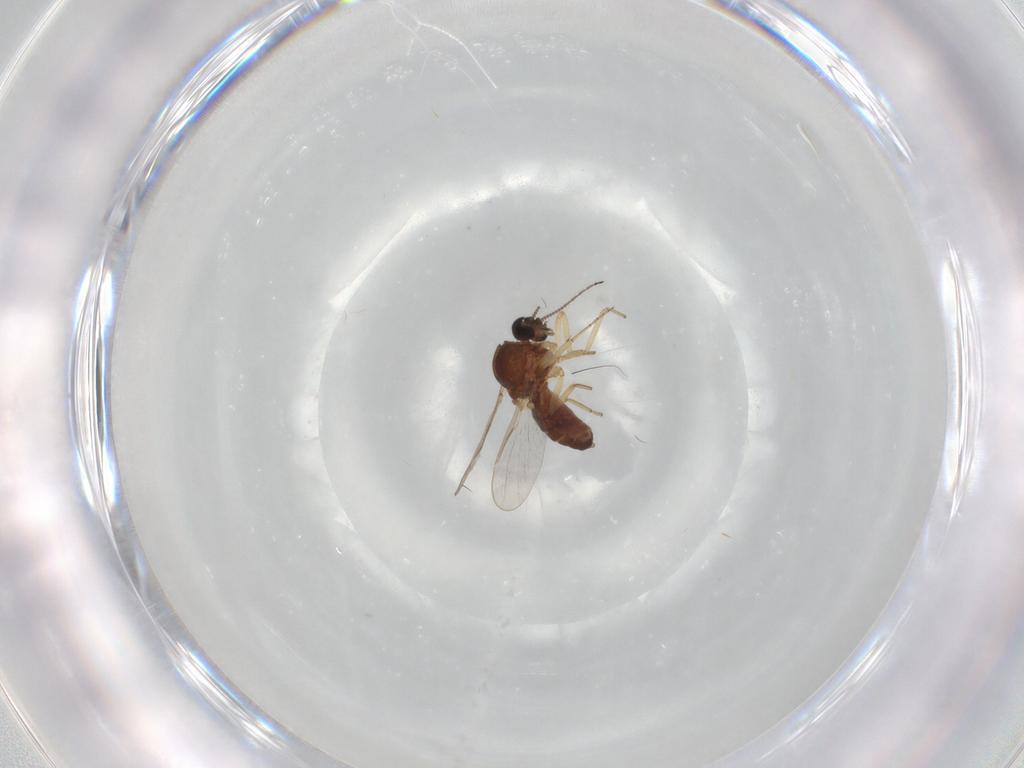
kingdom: Animalia
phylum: Arthropoda
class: Insecta
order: Diptera
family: Ceratopogonidae
